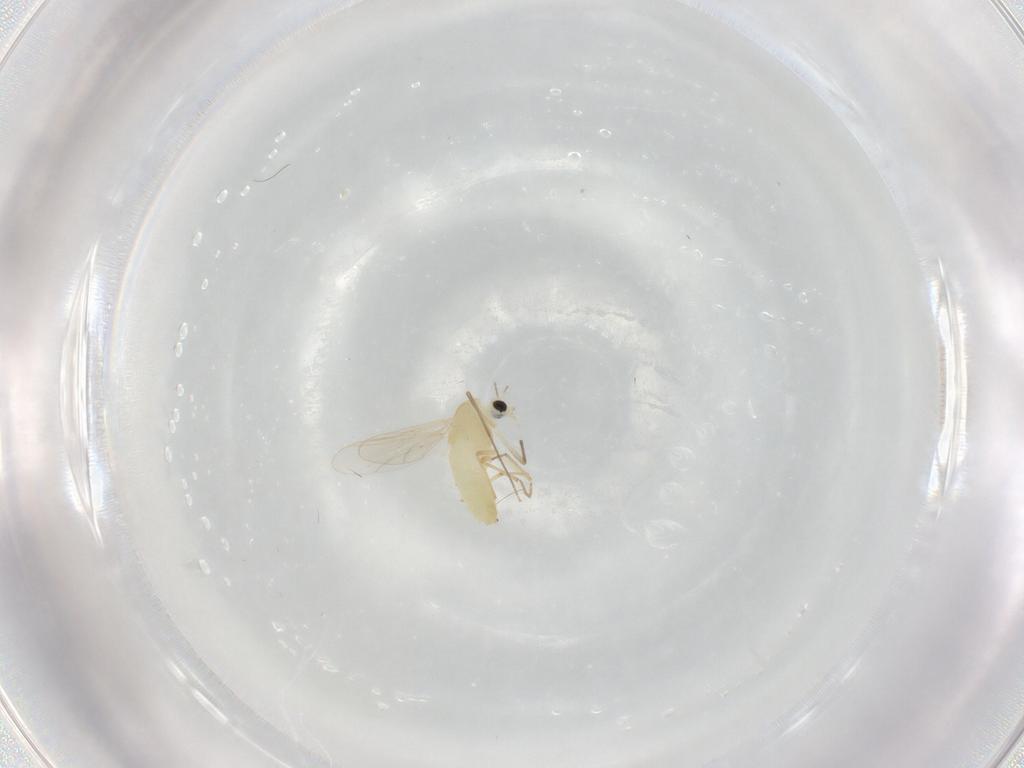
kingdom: Animalia
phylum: Arthropoda
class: Insecta
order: Diptera
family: Chironomidae
